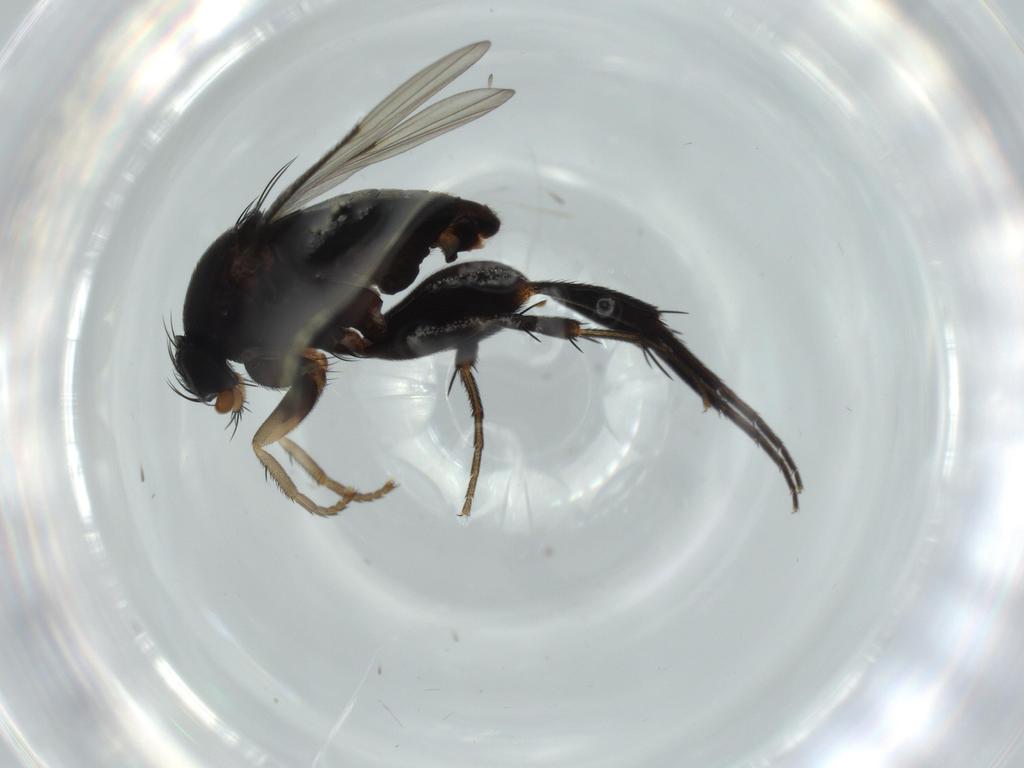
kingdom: Animalia
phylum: Arthropoda
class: Insecta
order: Diptera
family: Phoridae
